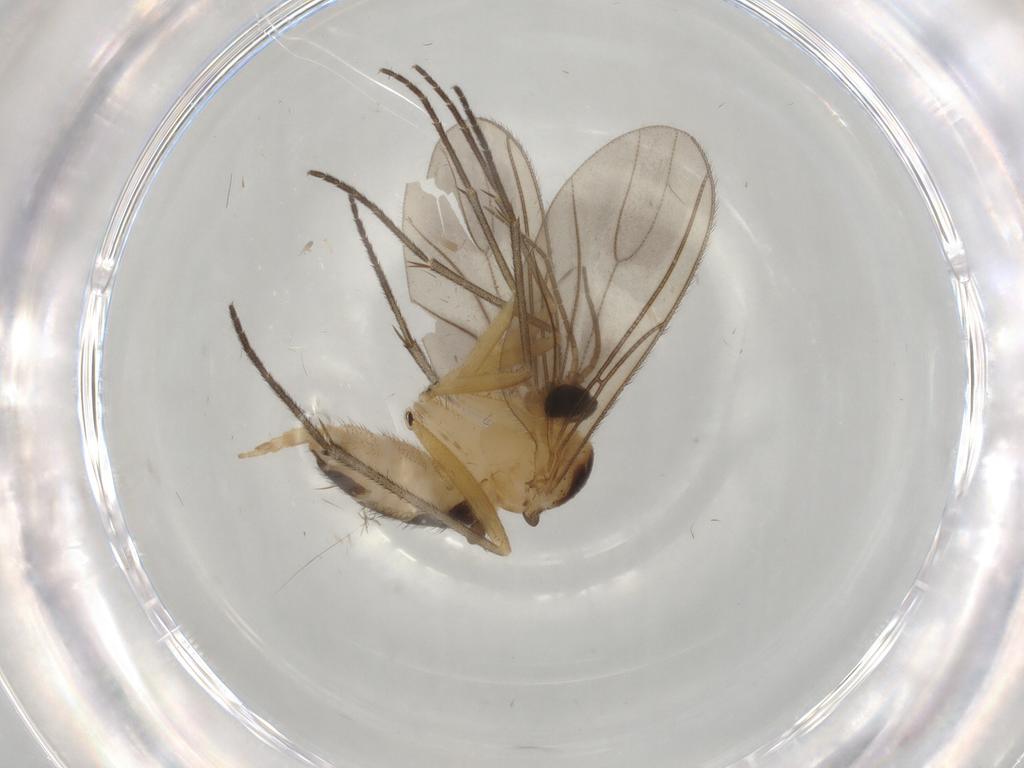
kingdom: Animalia
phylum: Arthropoda
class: Insecta
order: Diptera
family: Sciaridae
